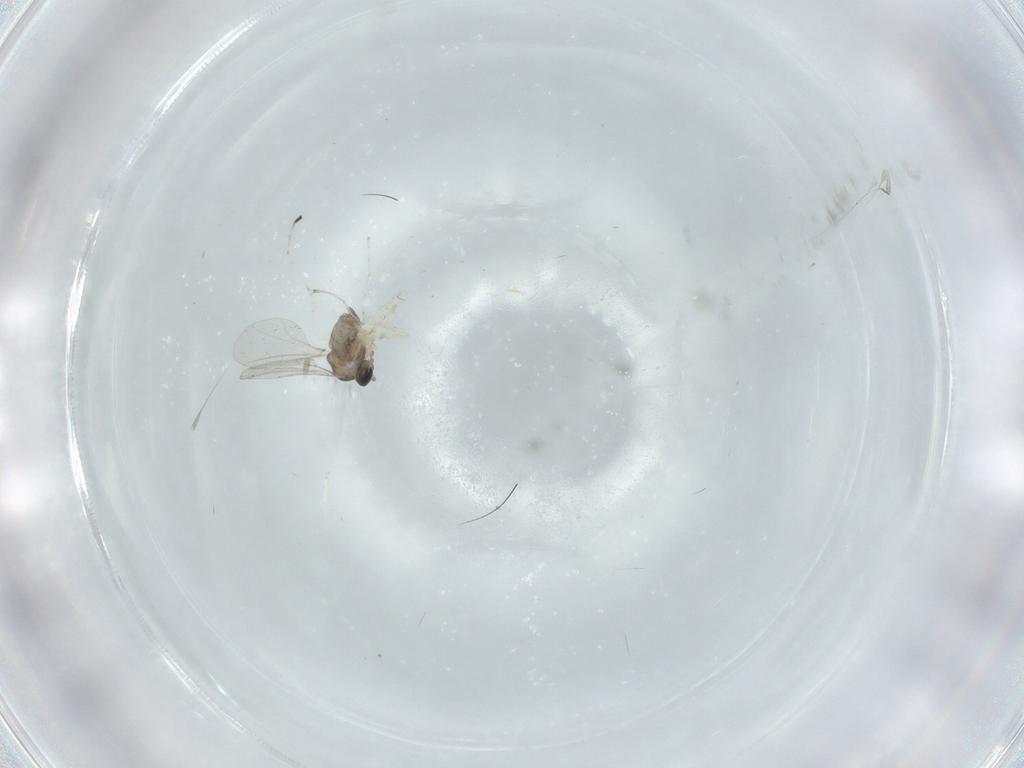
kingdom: Animalia
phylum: Arthropoda
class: Insecta
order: Diptera
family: Cecidomyiidae
